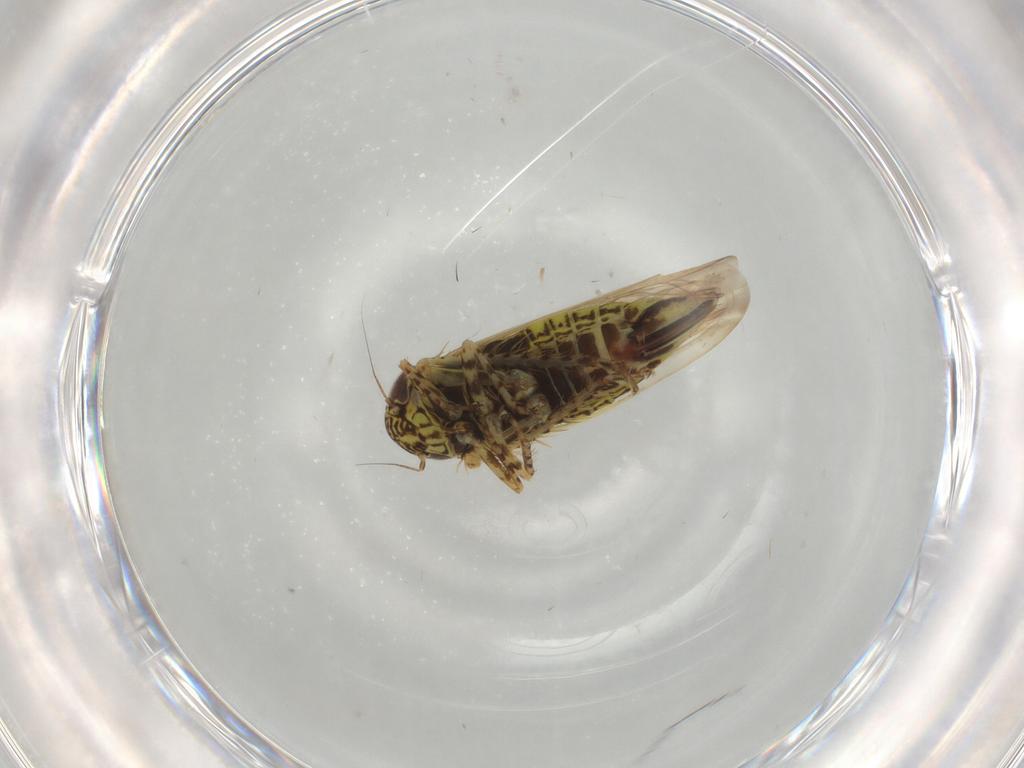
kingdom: Animalia
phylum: Arthropoda
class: Insecta
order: Hemiptera
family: Cicadellidae
